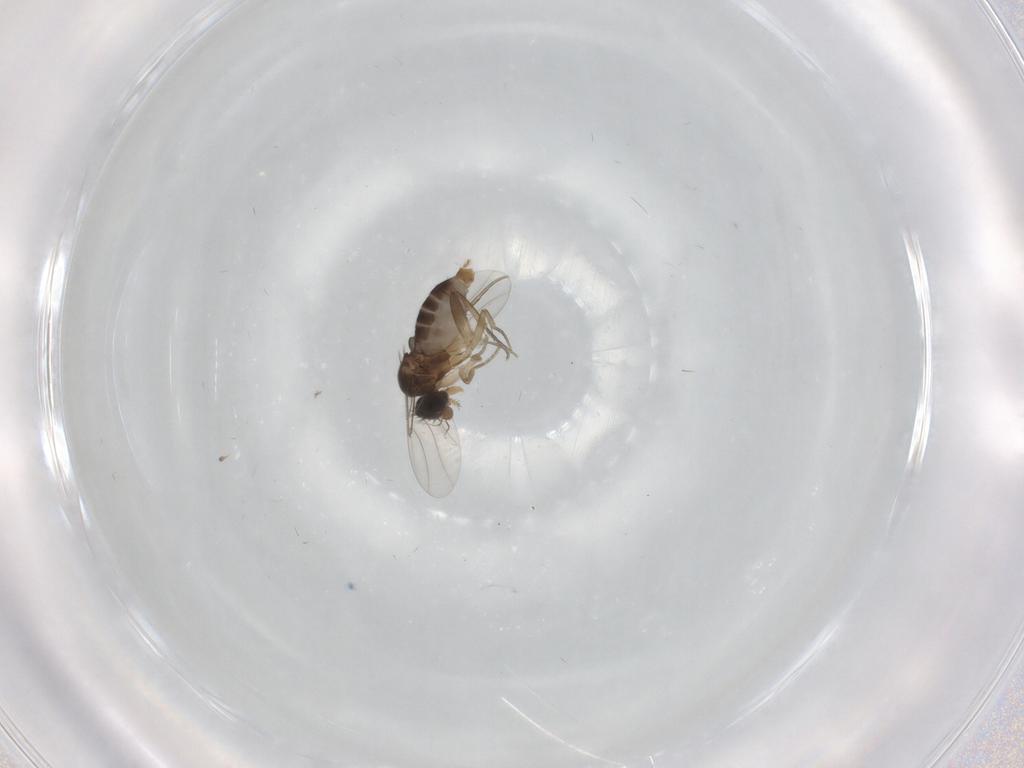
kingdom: Animalia
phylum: Arthropoda
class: Insecta
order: Diptera
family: Phoridae
